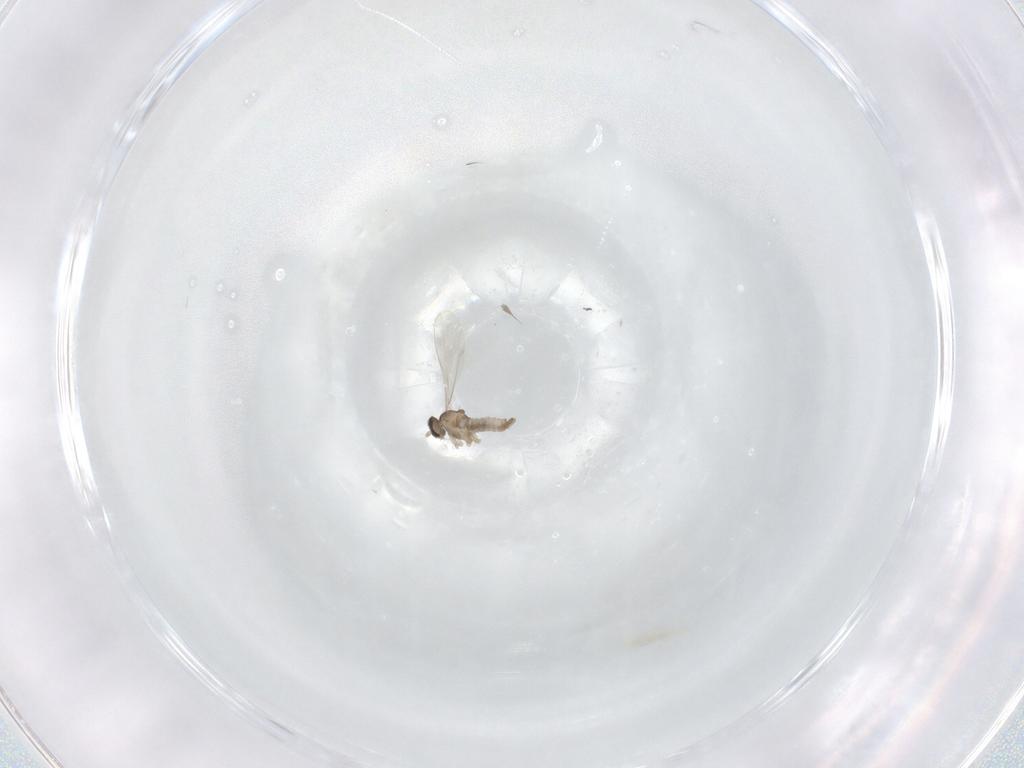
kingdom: Animalia
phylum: Arthropoda
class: Insecta
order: Diptera
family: Cecidomyiidae
